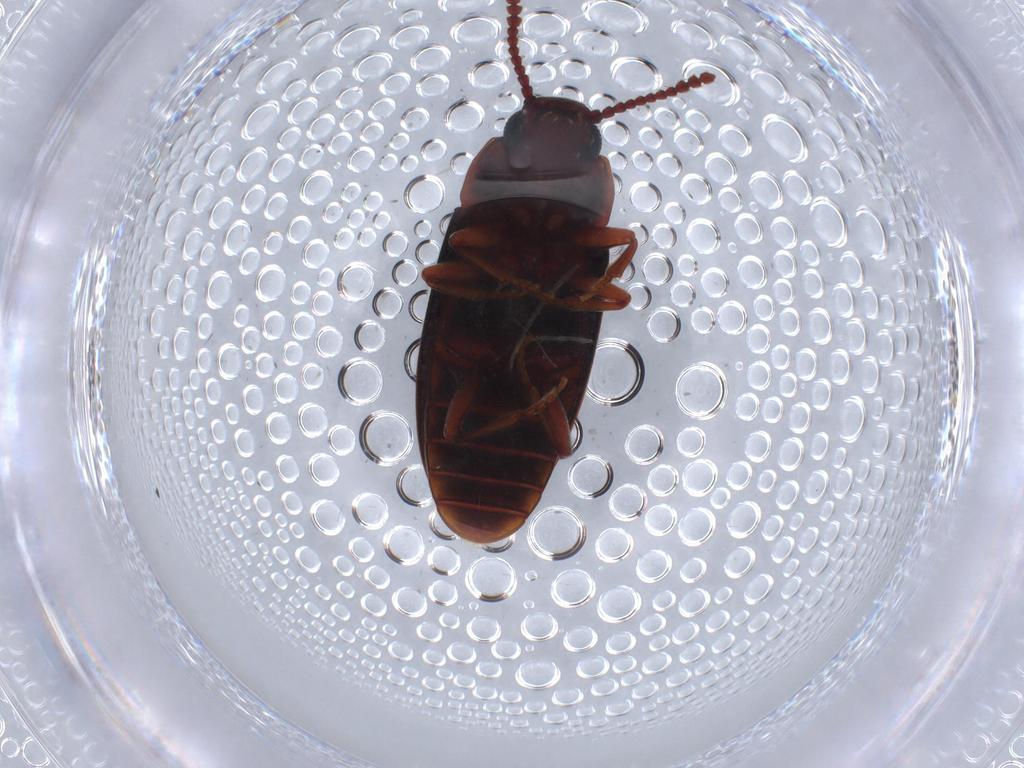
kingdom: Animalia
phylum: Arthropoda
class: Insecta
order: Coleoptera
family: Erotylidae
